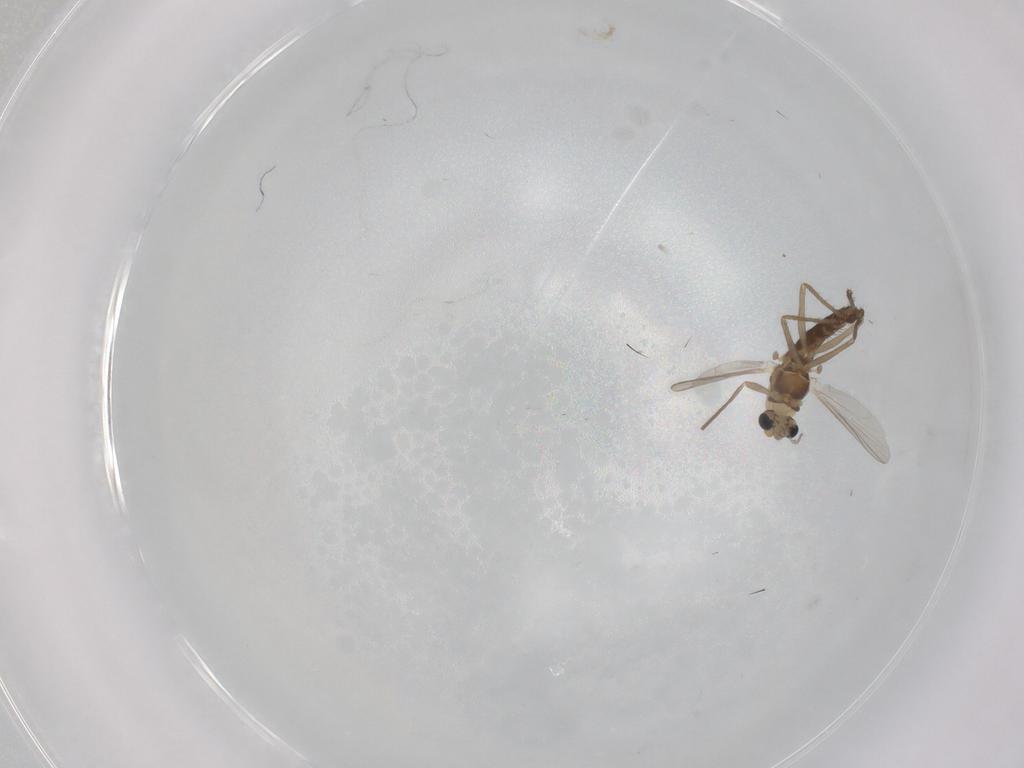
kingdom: Animalia
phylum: Arthropoda
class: Insecta
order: Diptera
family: Chironomidae
